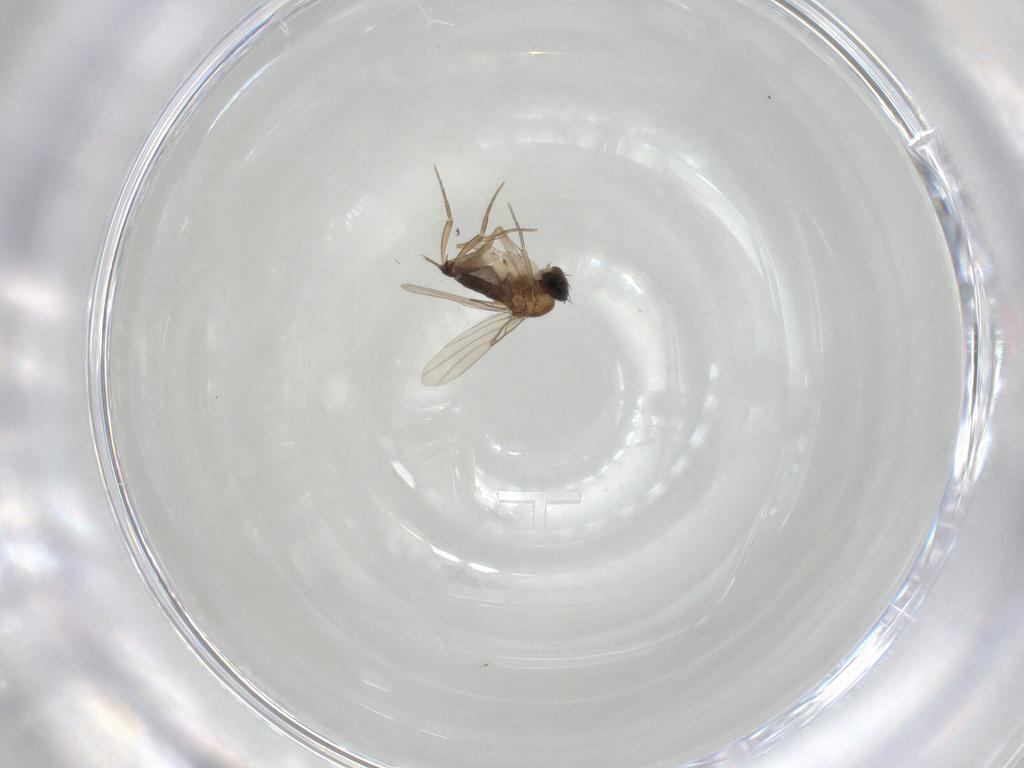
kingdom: Animalia
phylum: Arthropoda
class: Insecta
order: Diptera
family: Phoridae
